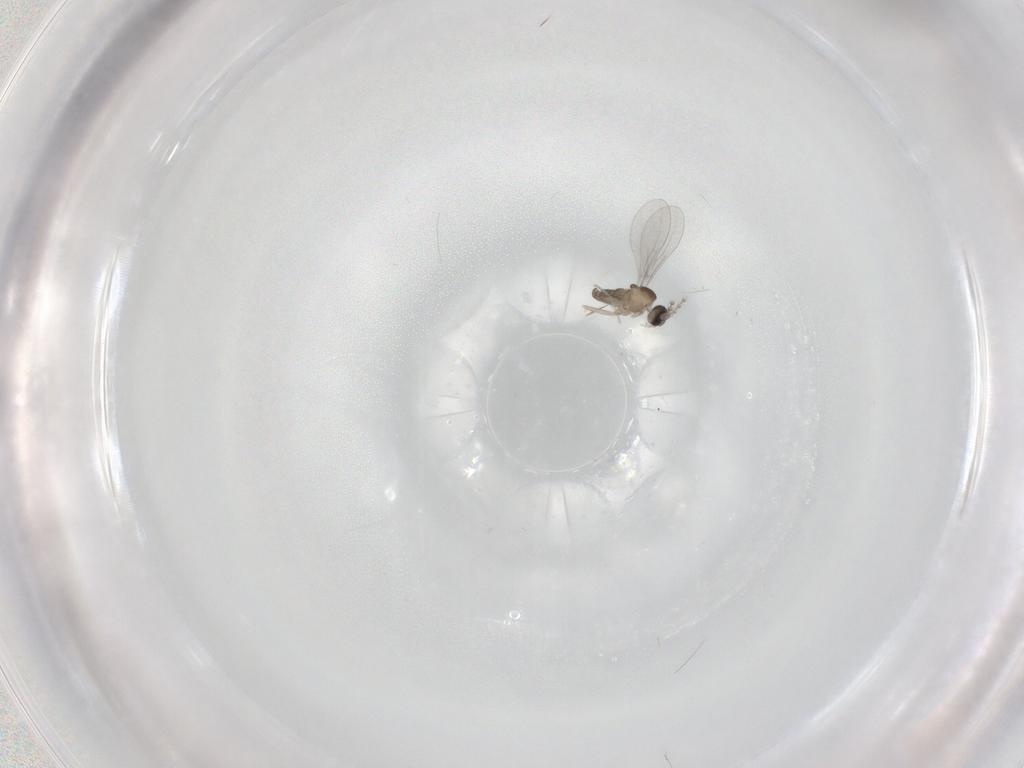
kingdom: Animalia
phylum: Arthropoda
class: Insecta
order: Diptera
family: Cecidomyiidae
